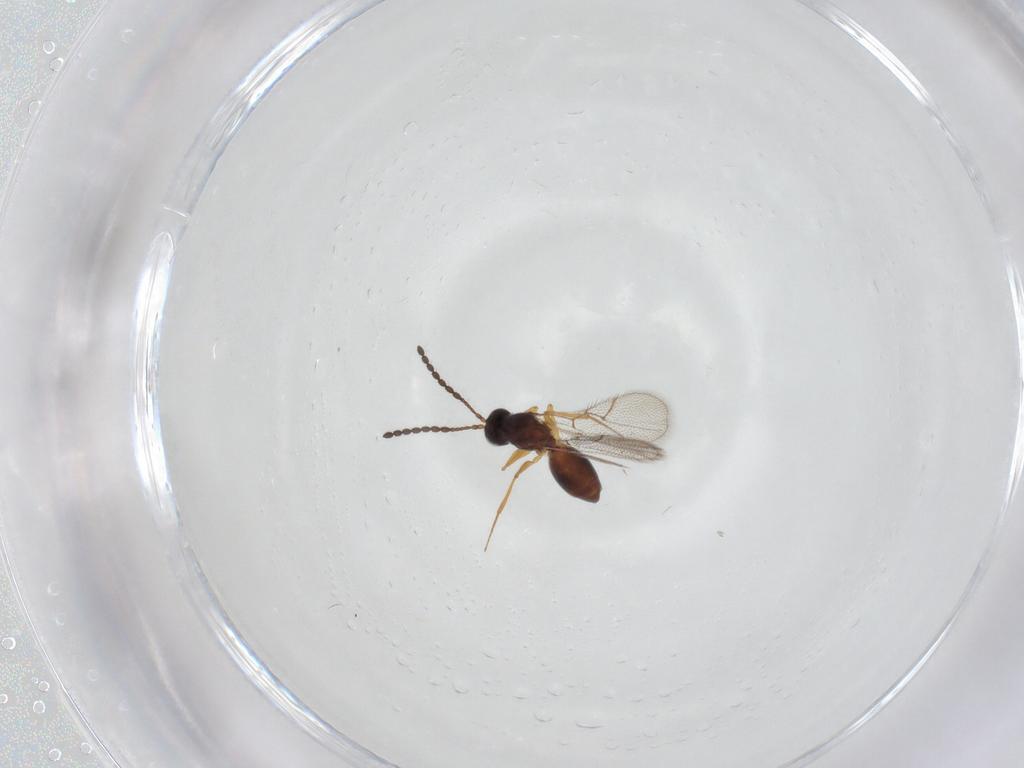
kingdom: Animalia
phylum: Arthropoda
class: Insecta
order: Hymenoptera
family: Figitidae
